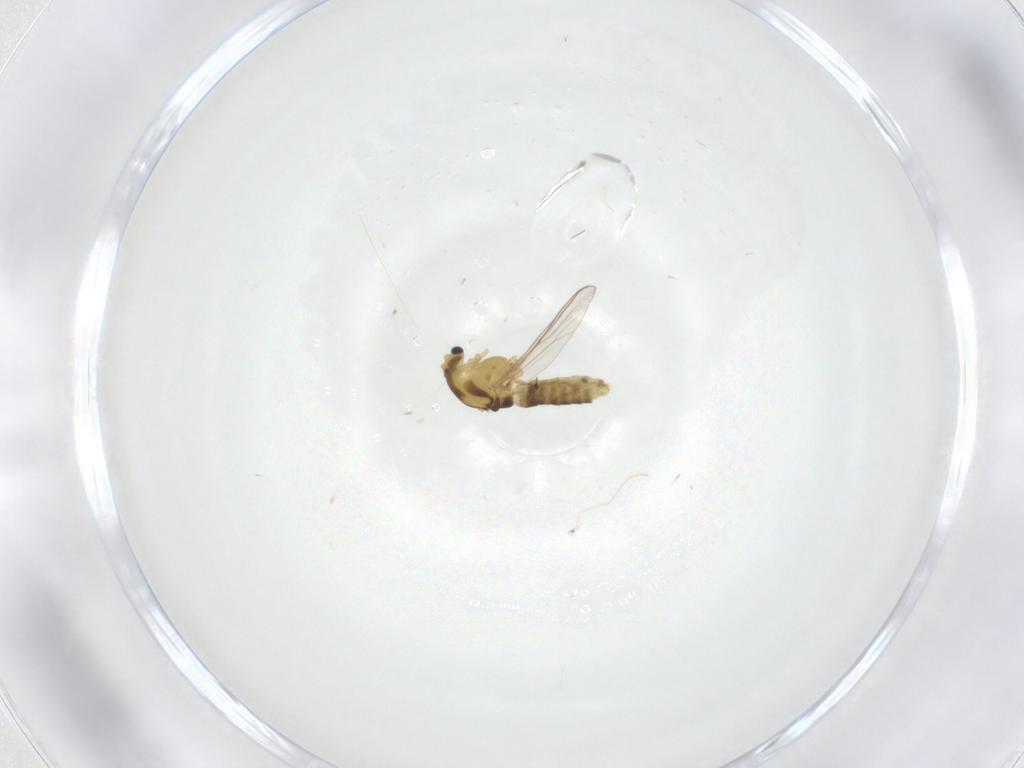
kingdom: Animalia
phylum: Arthropoda
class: Insecta
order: Diptera
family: Chironomidae
